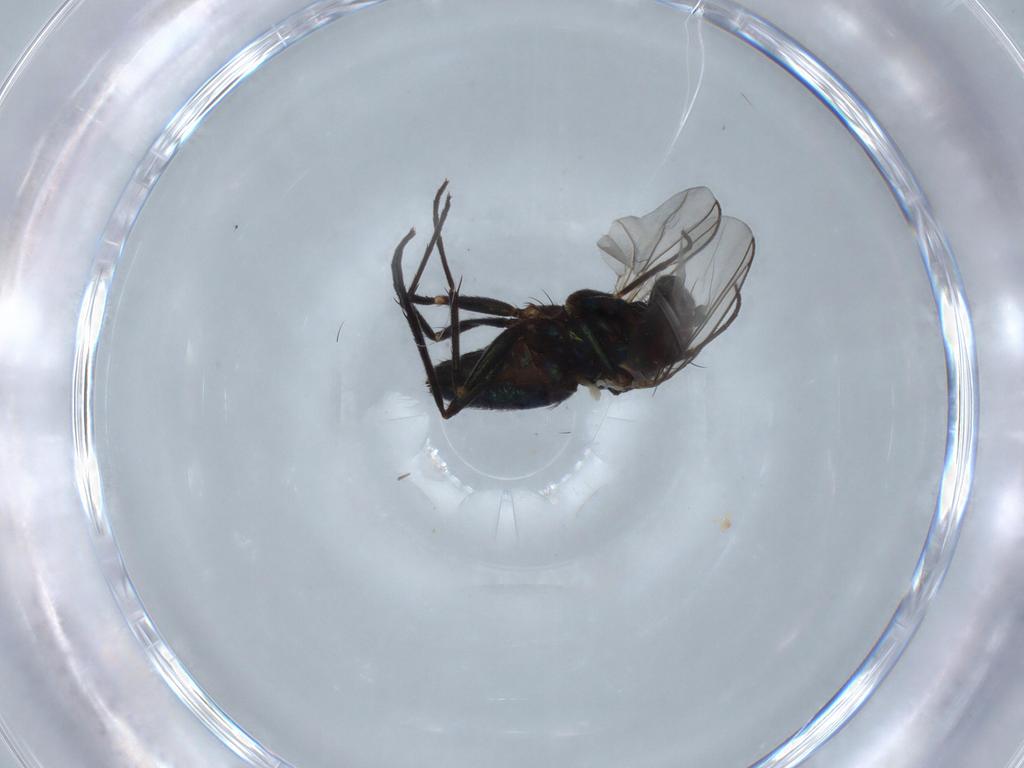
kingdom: Animalia
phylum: Arthropoda
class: Insecta
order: Diptera
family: Dolichopodidae
